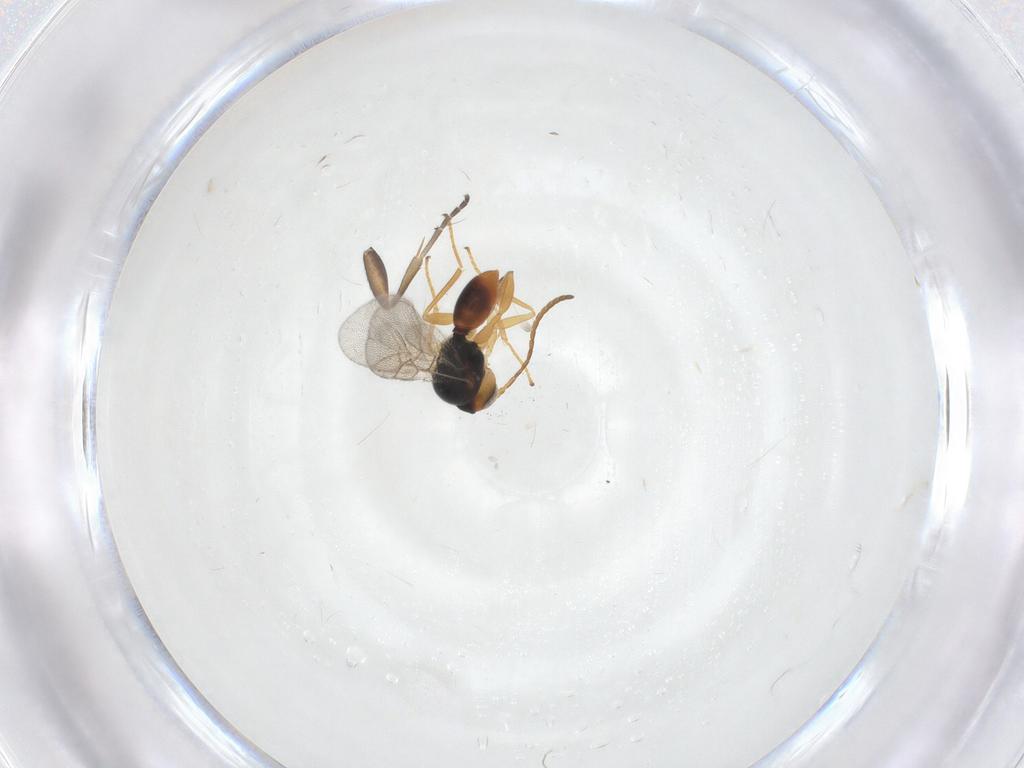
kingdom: Animalia
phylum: Arthropoda
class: Insecta
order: Hymenoptera
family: Cynipidae
